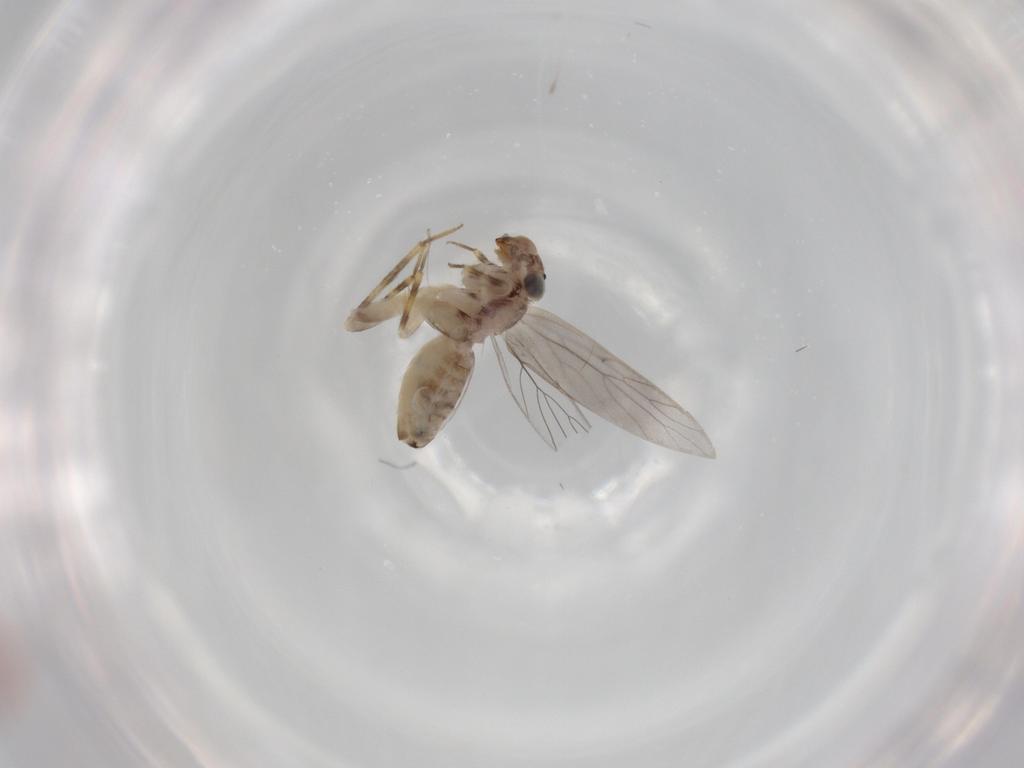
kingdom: Animalia
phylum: Arthropoda
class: Insecta
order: Psocodea
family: Lepidopsocidae
